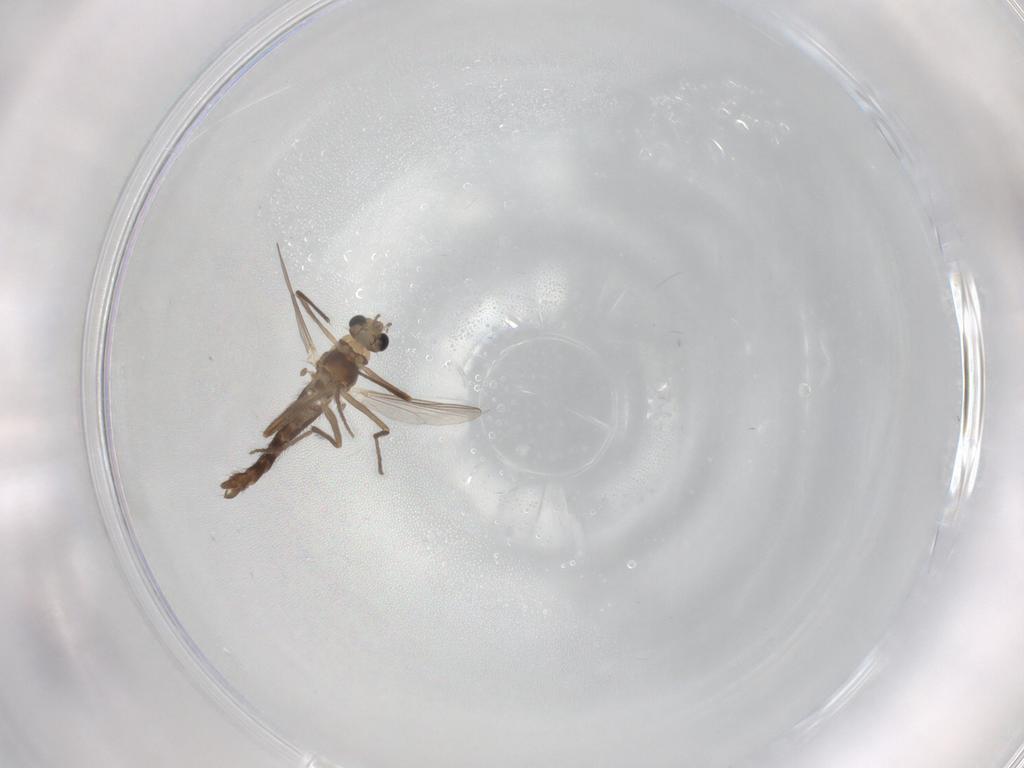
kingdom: Animalia
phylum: Arthropoda
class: Insecta
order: Diptera
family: Chironomidae
